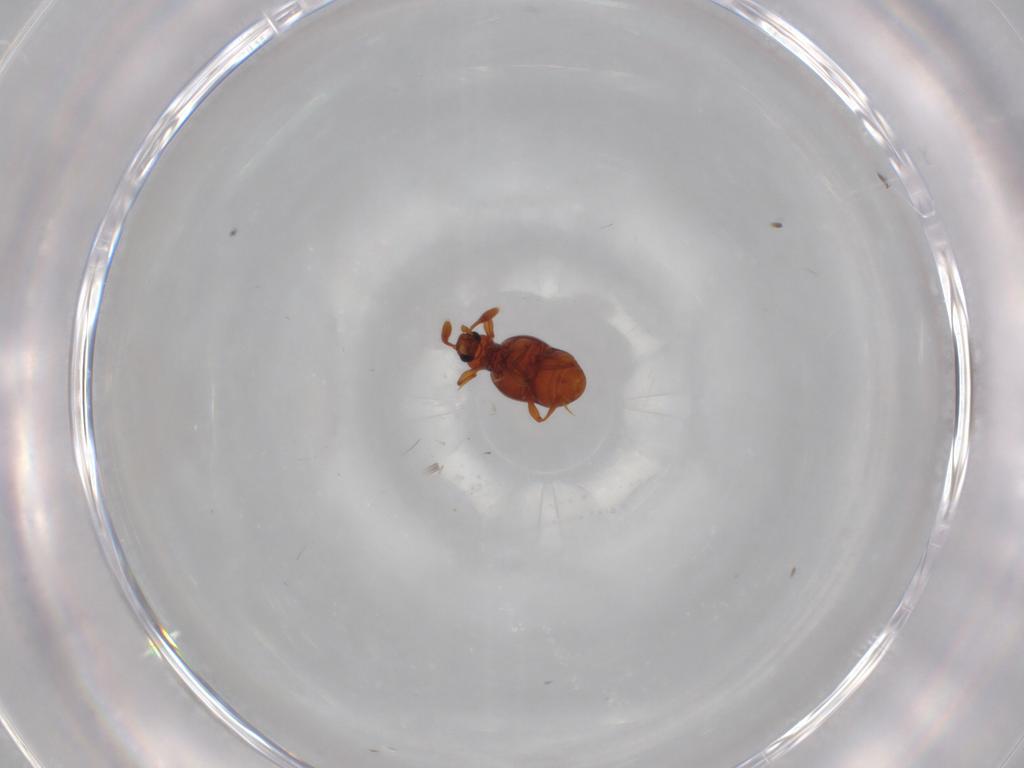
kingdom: Animalia
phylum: Arthropoda
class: Insecta
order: Coleoptera
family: Staphylinidae
